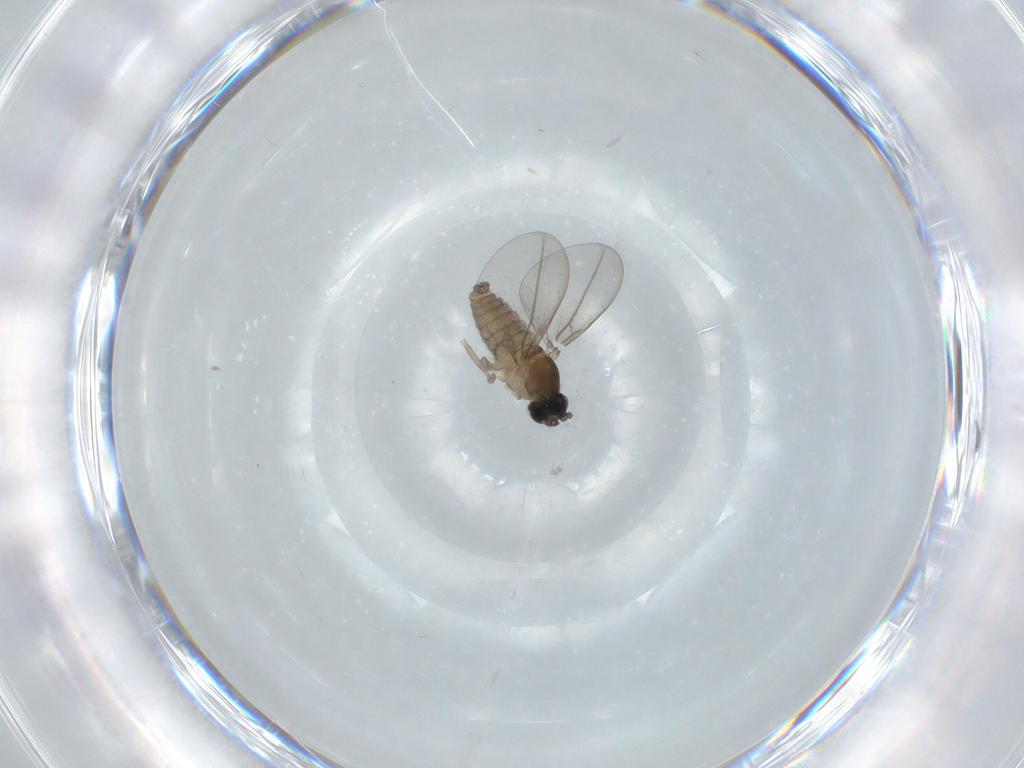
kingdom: Animalia
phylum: Arthropoda
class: Insecta
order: Diptera
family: Cecidomyiidae
